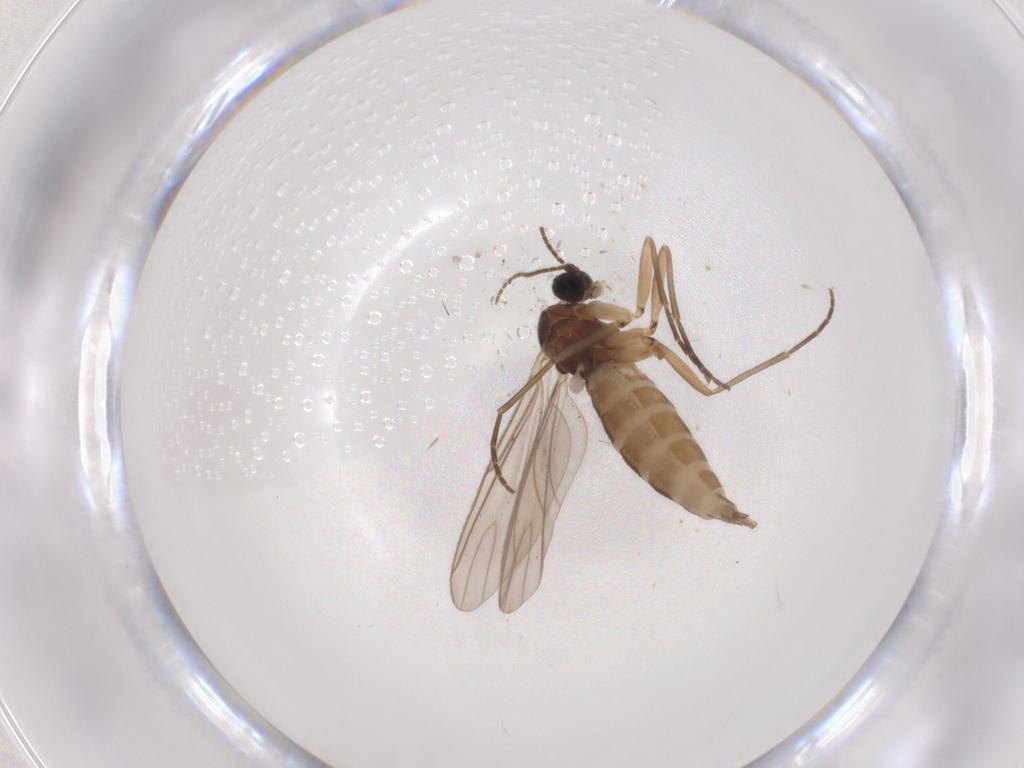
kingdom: Animalia
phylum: Arthropoda
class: Insecta
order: Diptera
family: Sciaridae
